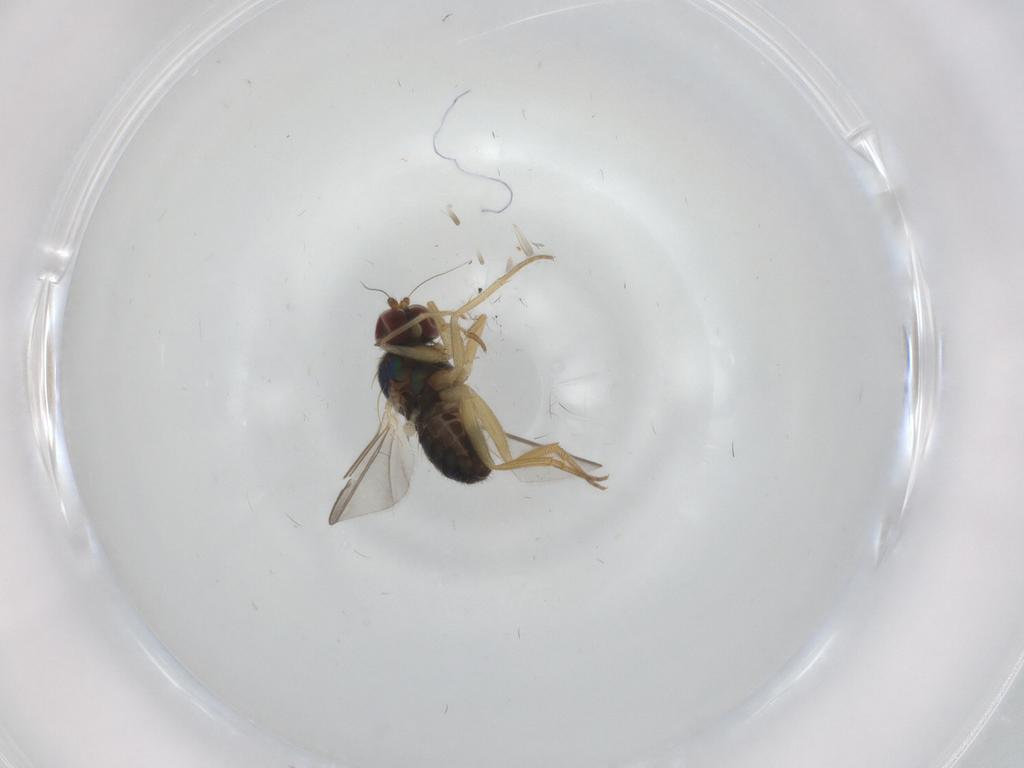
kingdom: Animalia
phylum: Arthropoda
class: Insecta
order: Diptera
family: Dolichopodidae
